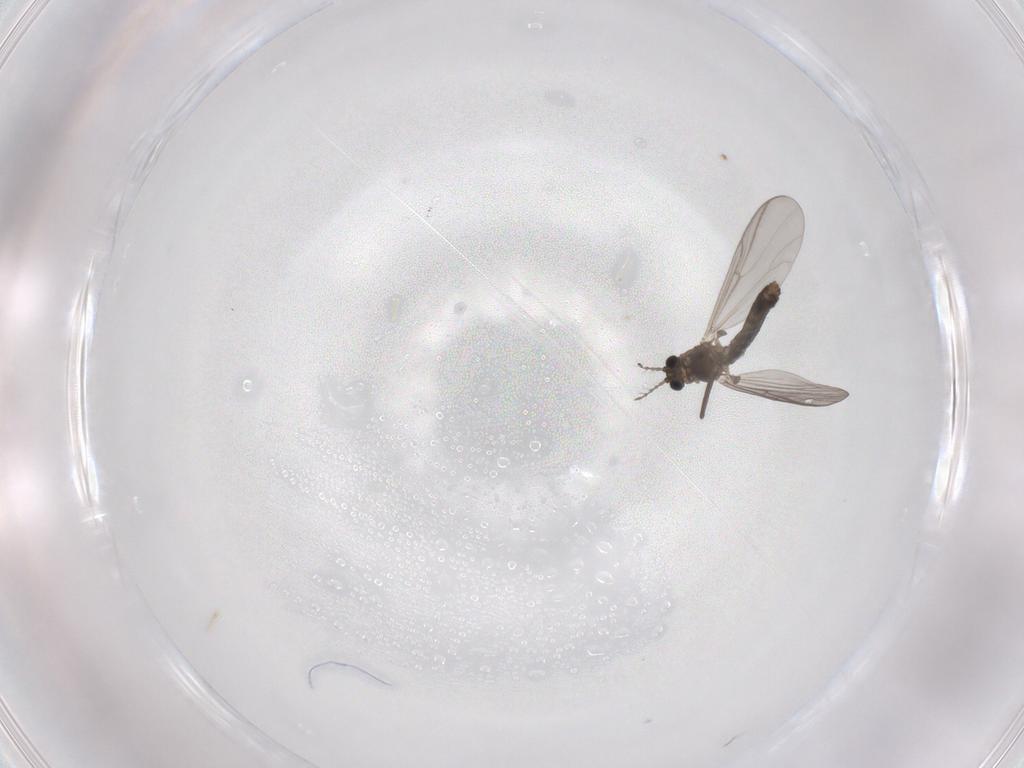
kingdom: Animalia
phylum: Arthropoda
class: Insecta
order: Diptera
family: Chironomidae
